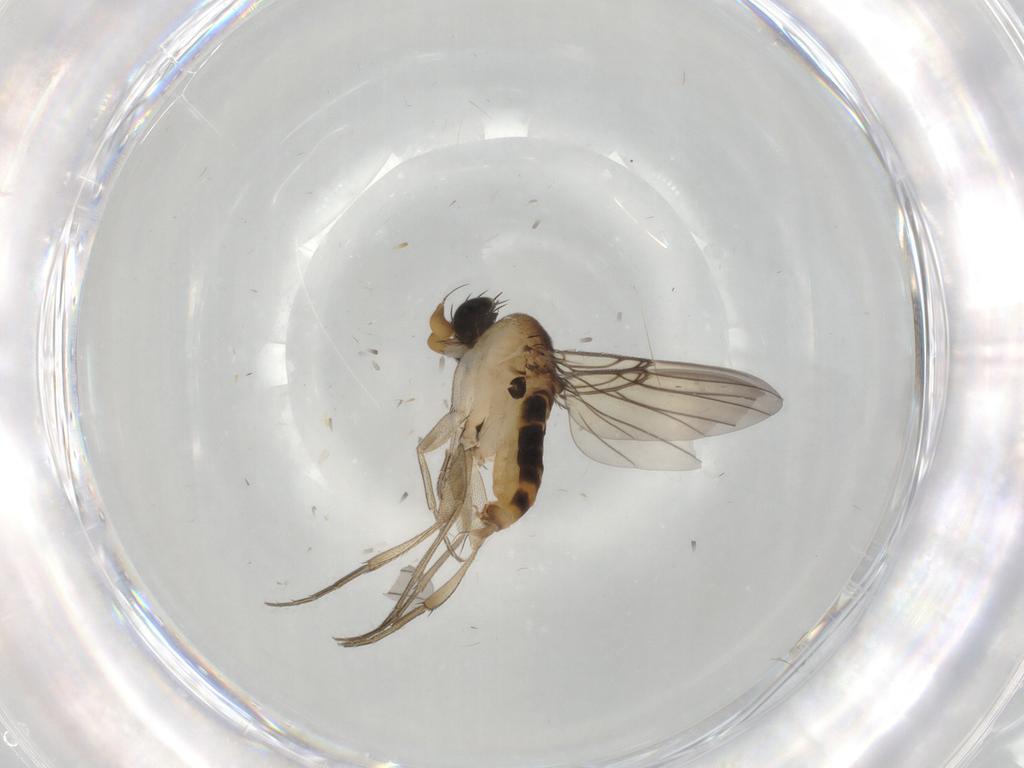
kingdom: Animalia
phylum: Arthropoda
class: Insecta
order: Diptera
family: Phoridae
